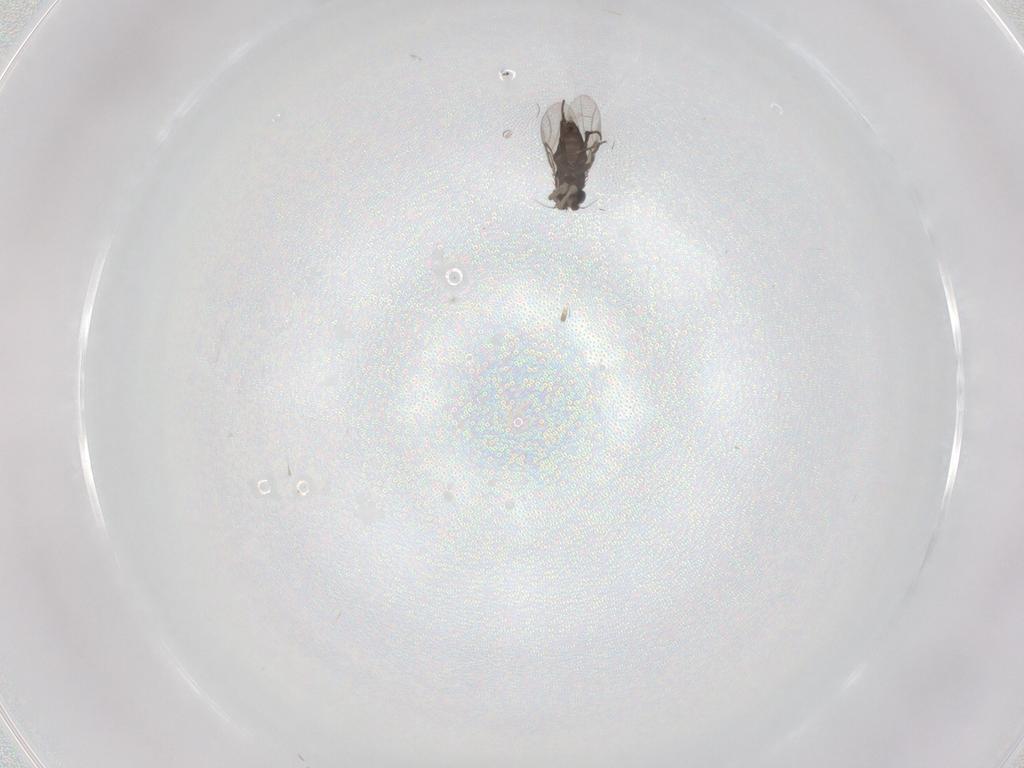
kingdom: Animalia
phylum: Arthropoda
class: Insecta
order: Diptera
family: Phoridae
